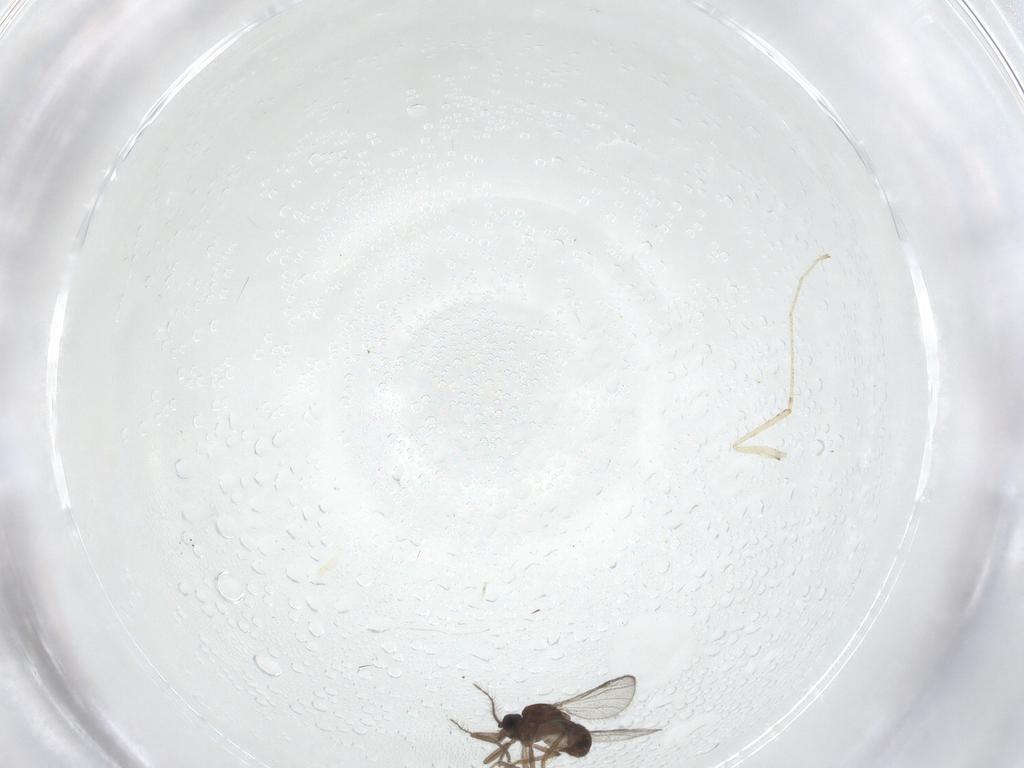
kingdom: Animalia
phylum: Arthropoda
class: Insecta
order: Diptera
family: Cecidomyiidae
